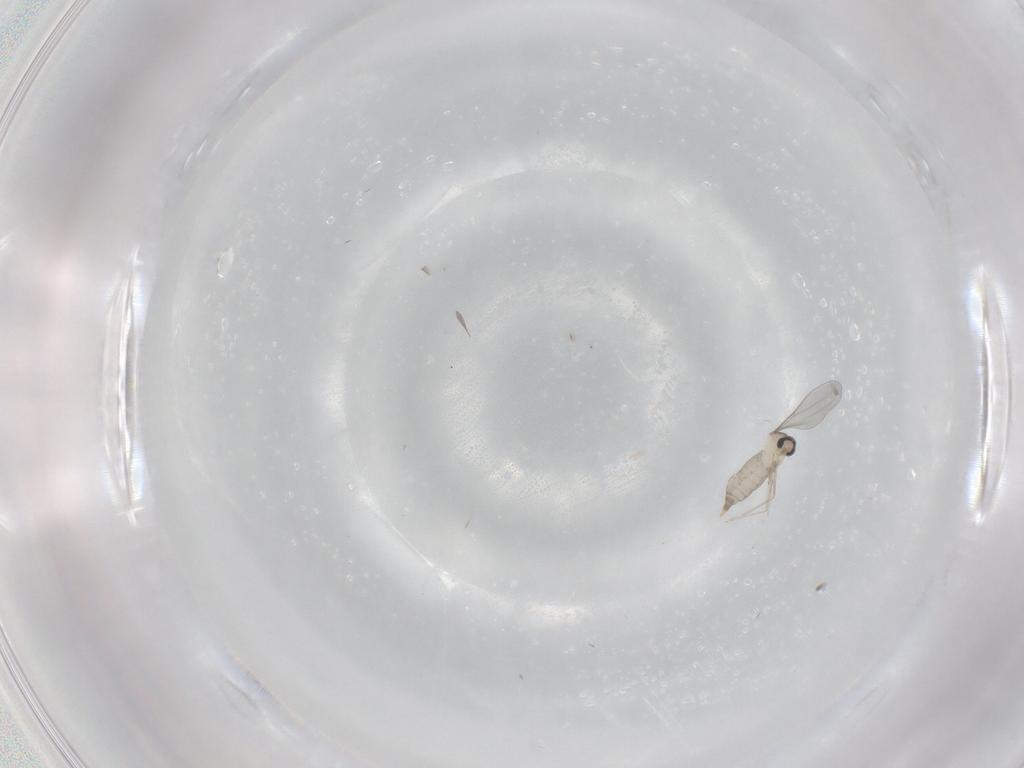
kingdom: Animalia
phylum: Arthropoda
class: Insecta
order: Diptera
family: Cecidomyiidae
